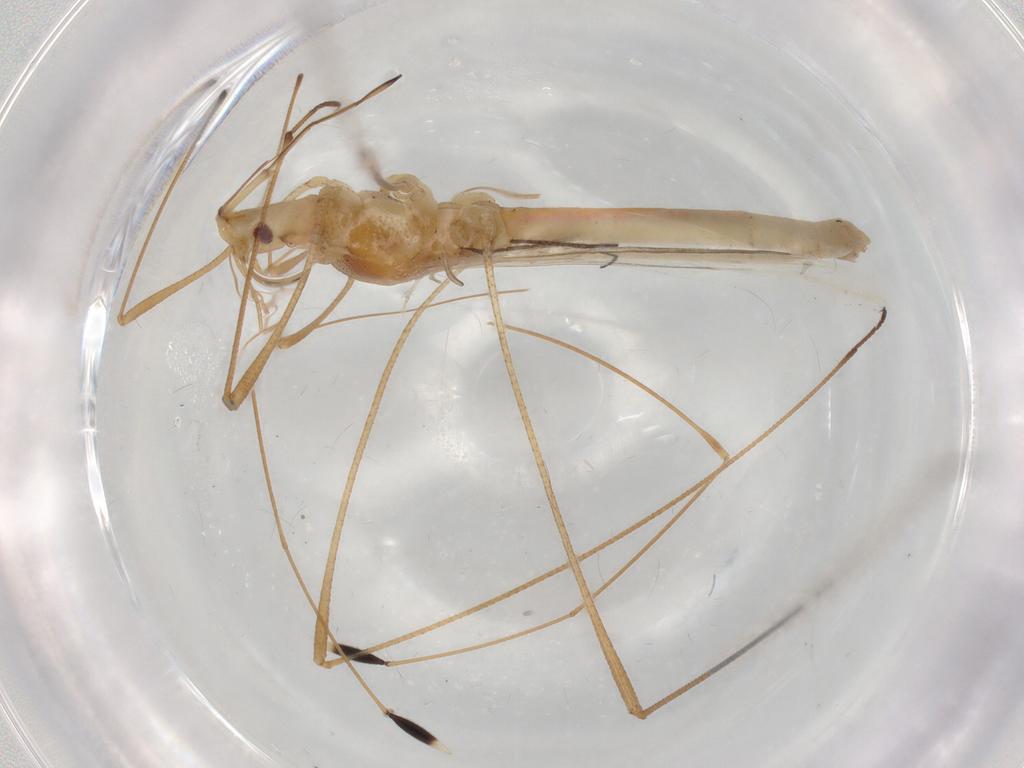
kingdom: Animalia
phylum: Arthropoda
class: Insecta
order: Hemiptera
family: Berytidae
